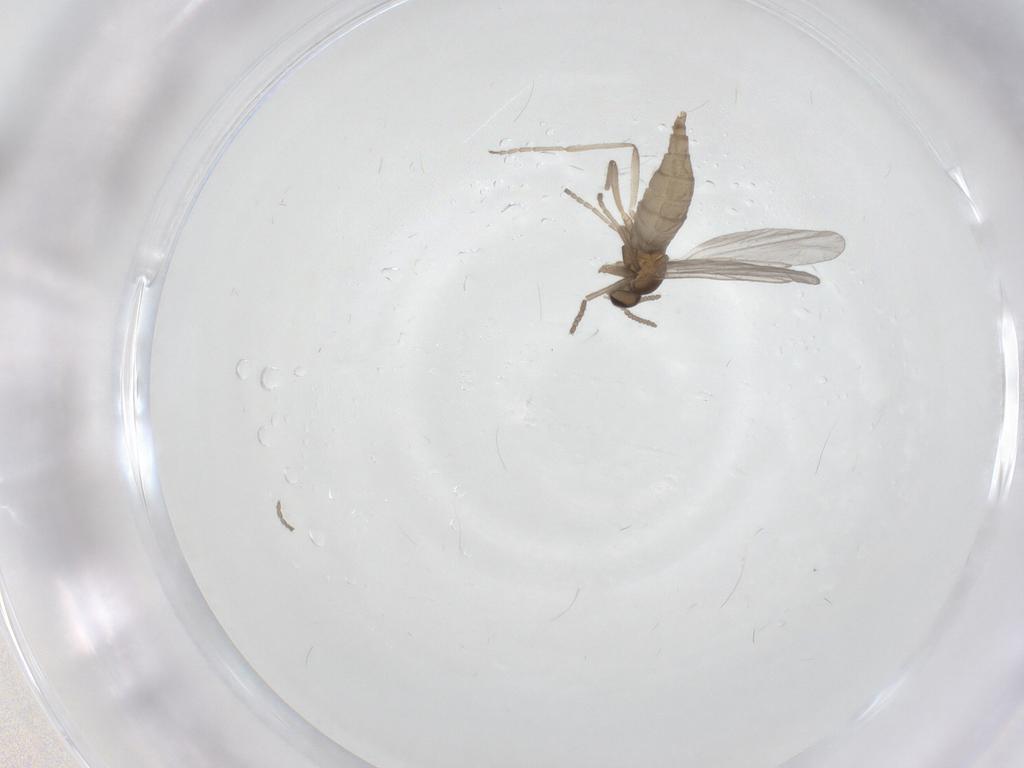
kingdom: Animalia
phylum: Arthropoda
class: Insecta
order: Diptera
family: Cecidomyiidae
